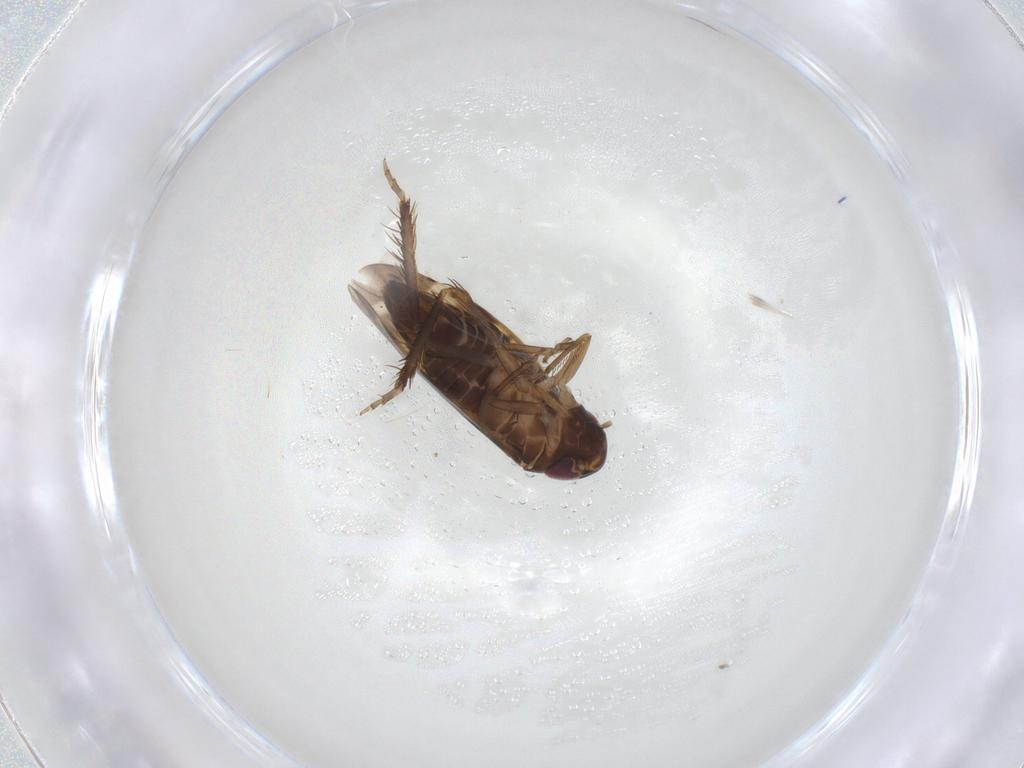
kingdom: Animalia
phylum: Arthropoda
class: Insecta
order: Hemiptera
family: Cicadellidae
